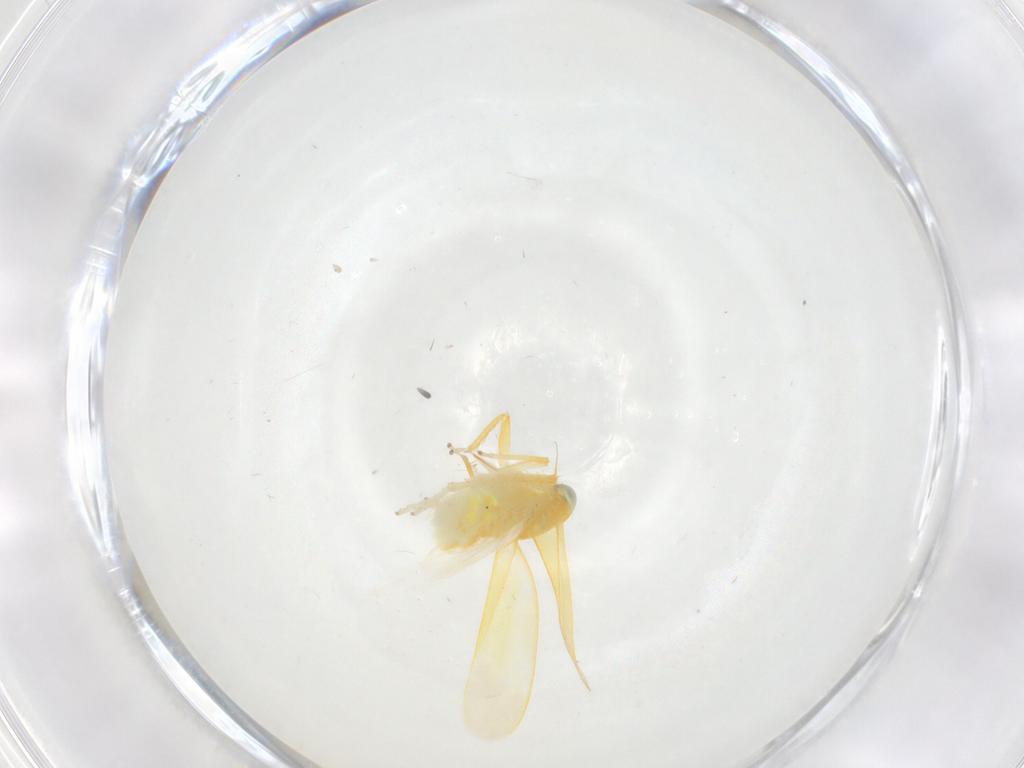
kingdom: Animalia
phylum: Arthropoda
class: Insecta
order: Hemiptera
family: Cicadellidae
